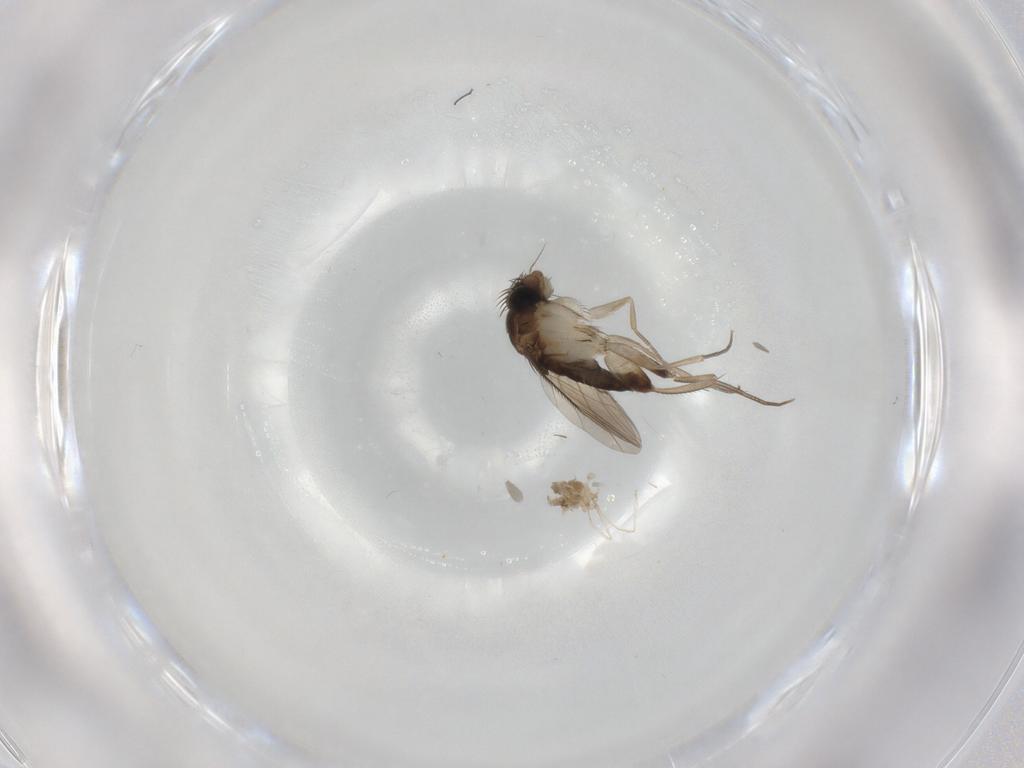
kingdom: Animalia
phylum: Arthropoda
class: Insecta
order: Diptera
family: Phoridae
